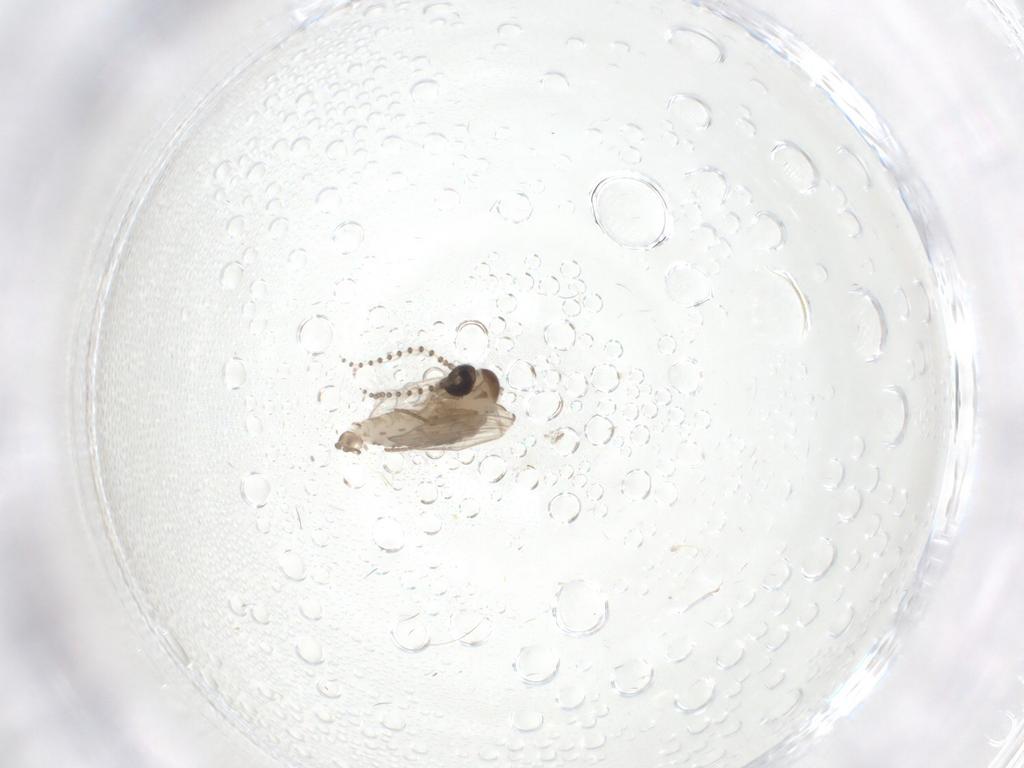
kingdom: Animalia
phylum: Arthropoda
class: Insecta
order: Diptera
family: Psychodidae
